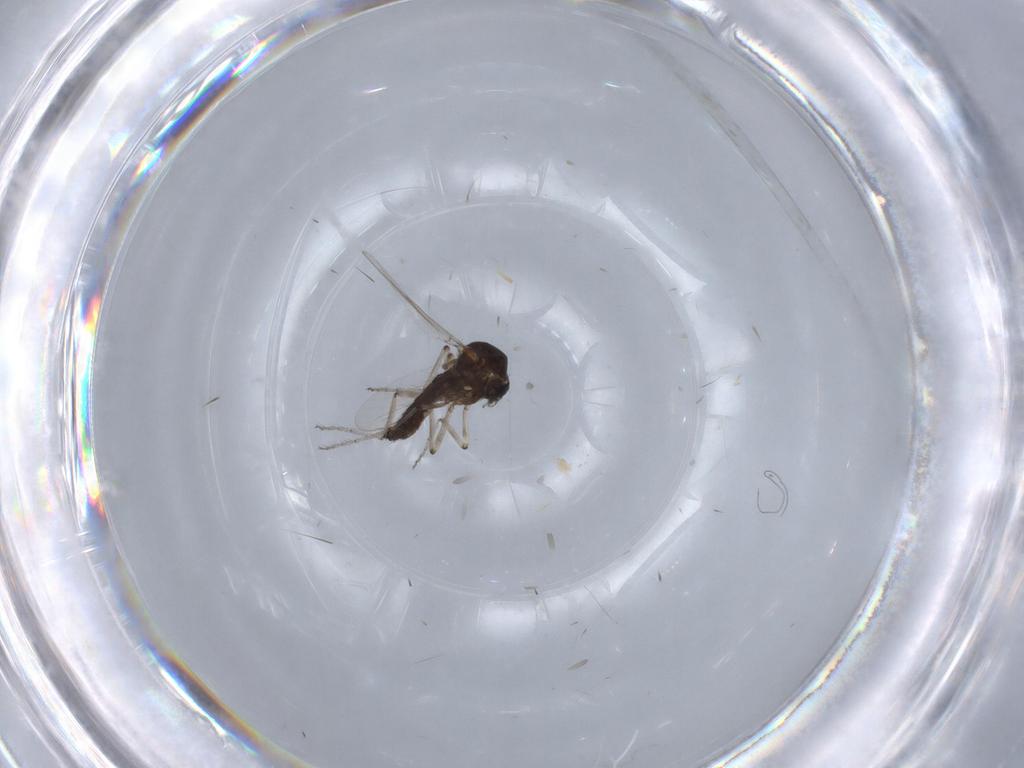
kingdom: Animalia
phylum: Arthropoda
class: Insecta
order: Diptera
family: Ceratopogonidae
